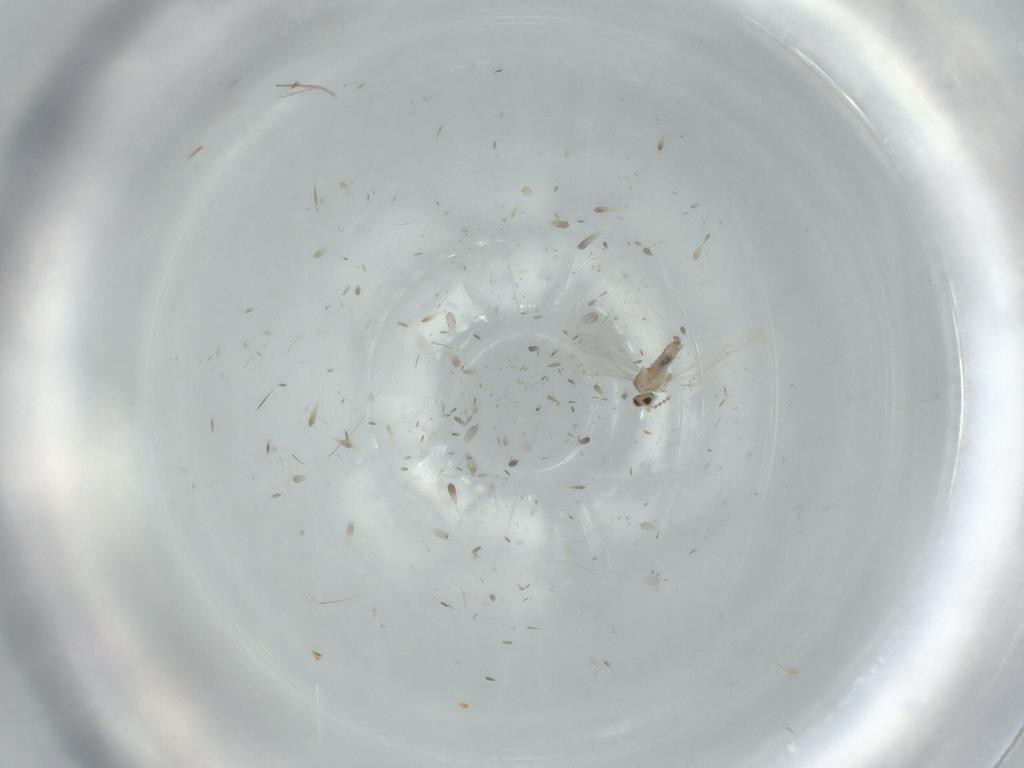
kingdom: Animalia
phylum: Arthropoda
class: Insecta
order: Diptera
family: Cecidomyiidae
